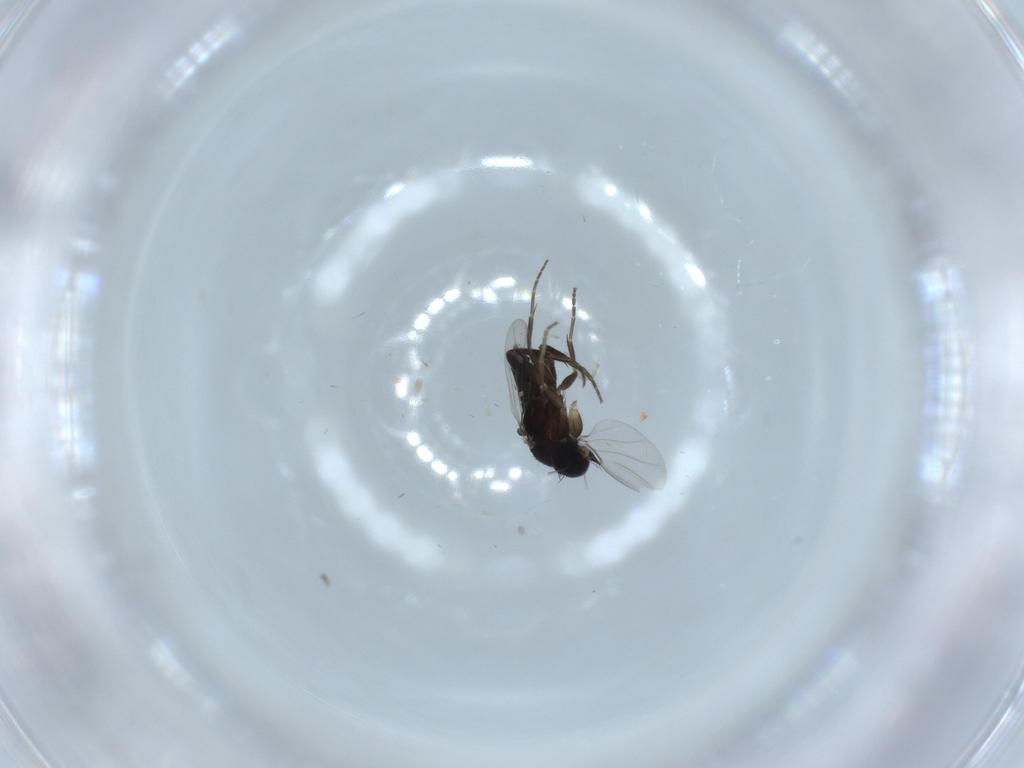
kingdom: Animalia
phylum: Arthropoda
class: Insecta
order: Diptera
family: Phoridae
